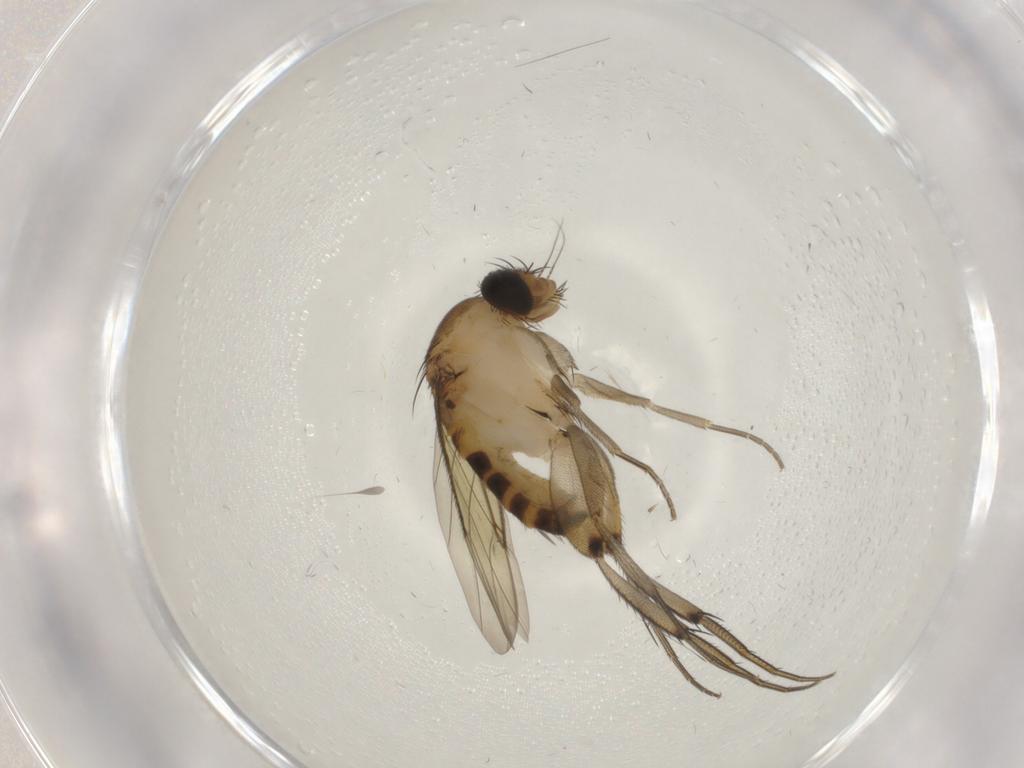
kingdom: Animalia
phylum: Arthropoda
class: Insecta
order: Diptera
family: Phoridae
